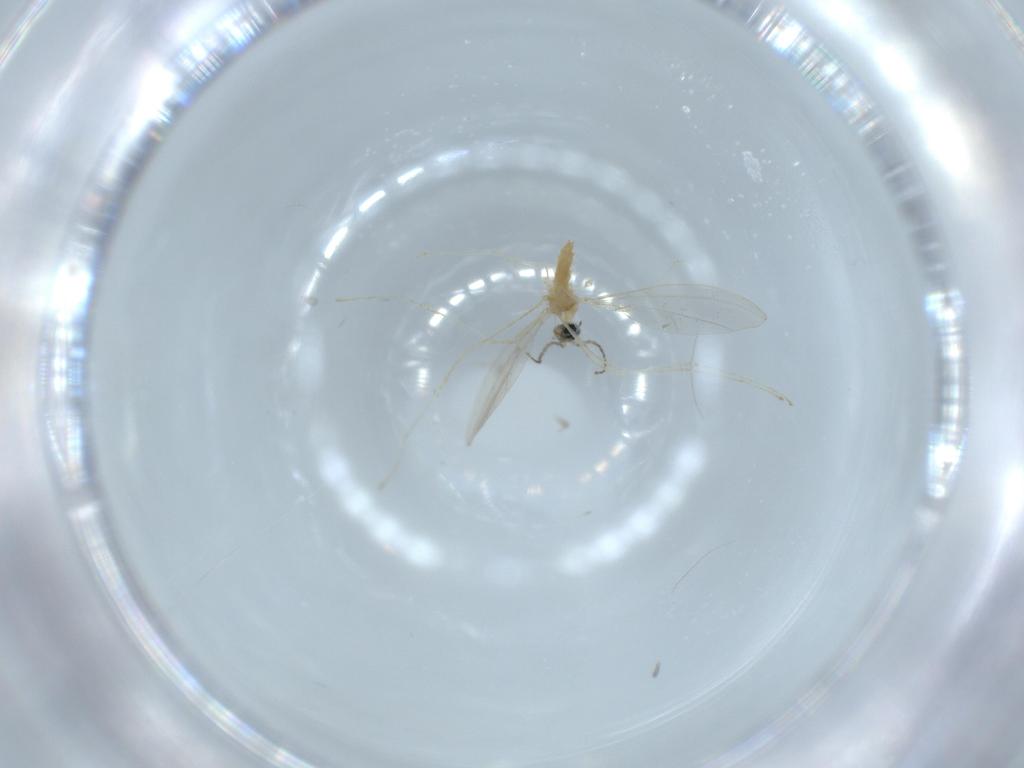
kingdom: Animalia
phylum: Arthropoda
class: Insecta
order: Diptera
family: Cecidomyiidae
